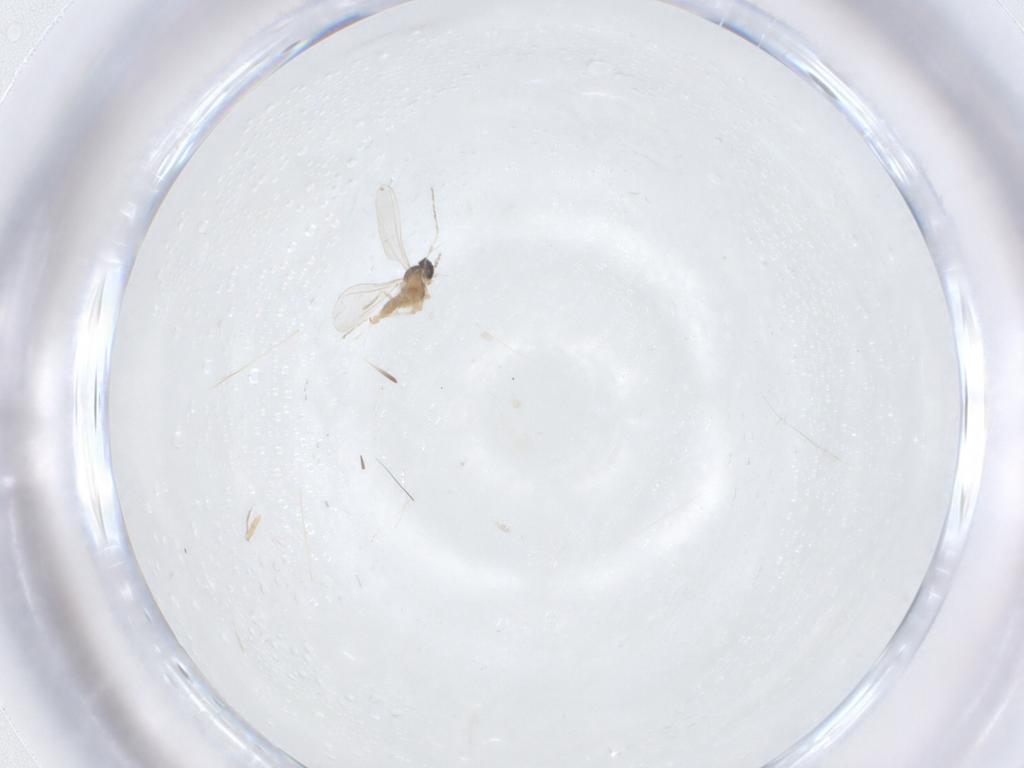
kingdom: Animalia
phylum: Arthropoda
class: Insecta
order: Diptera
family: Cecidomyiidae
